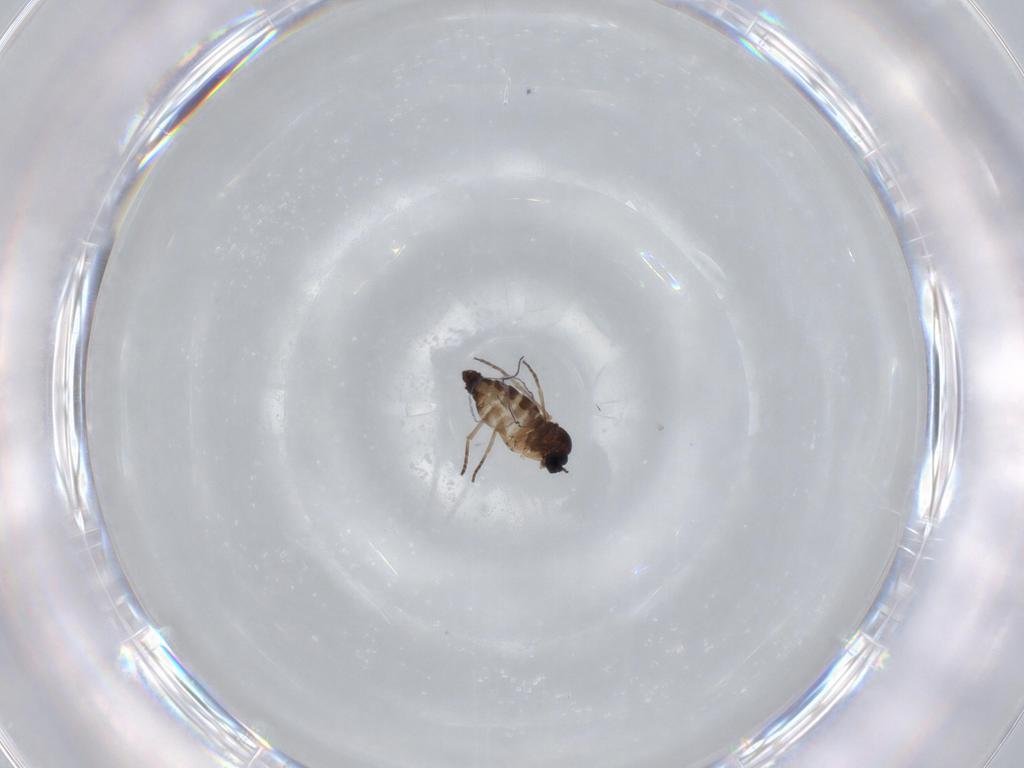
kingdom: Animalia
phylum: Arthropoda
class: Insecta
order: Diptera
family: Sciaridae
